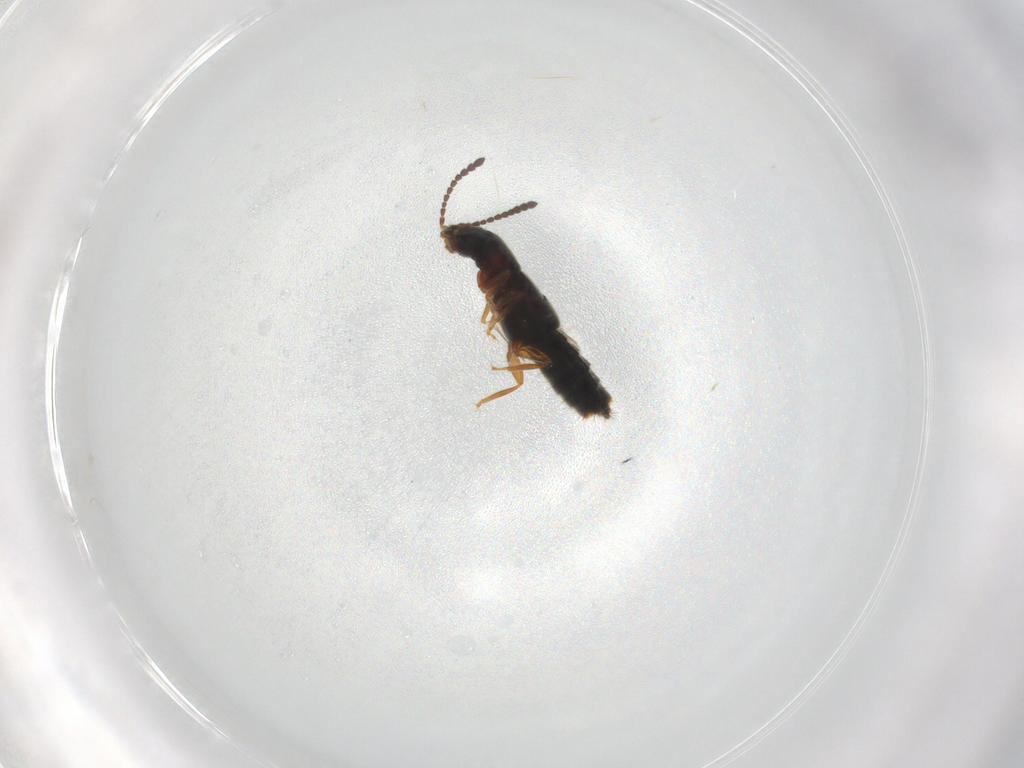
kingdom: Animalia
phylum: Arthropoda
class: Insecta
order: Coleoptera
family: Staphylinidae
